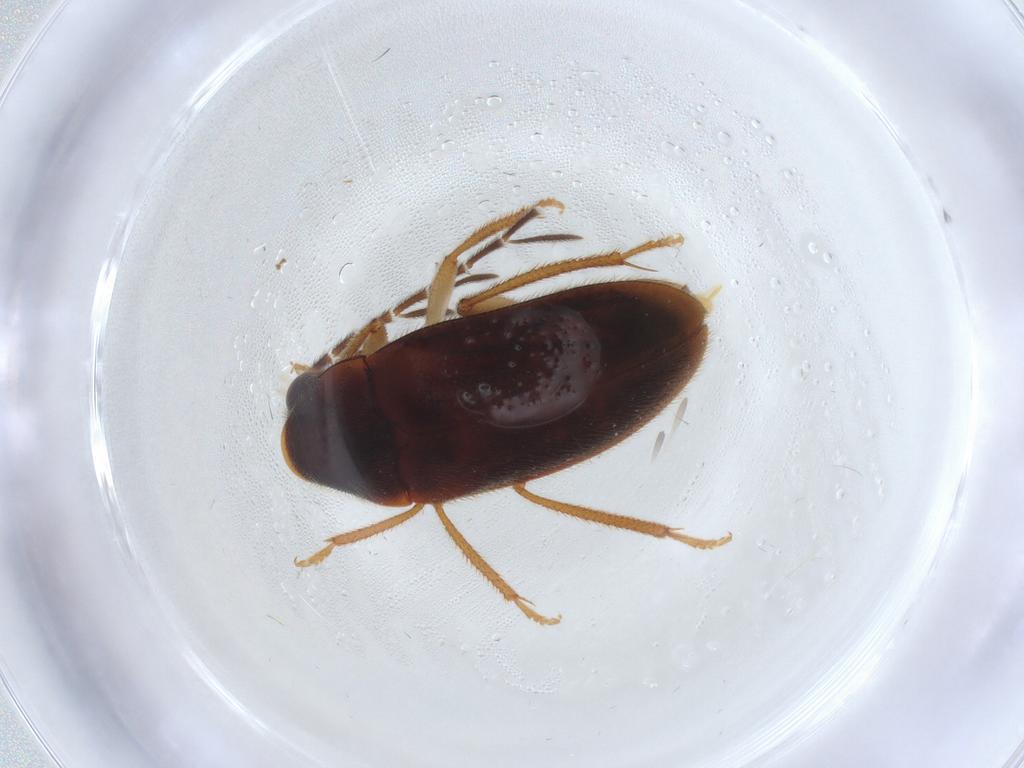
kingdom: Animalia
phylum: Arthropoda
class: Insecta
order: Coleoptera
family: Ptilodactylidae
